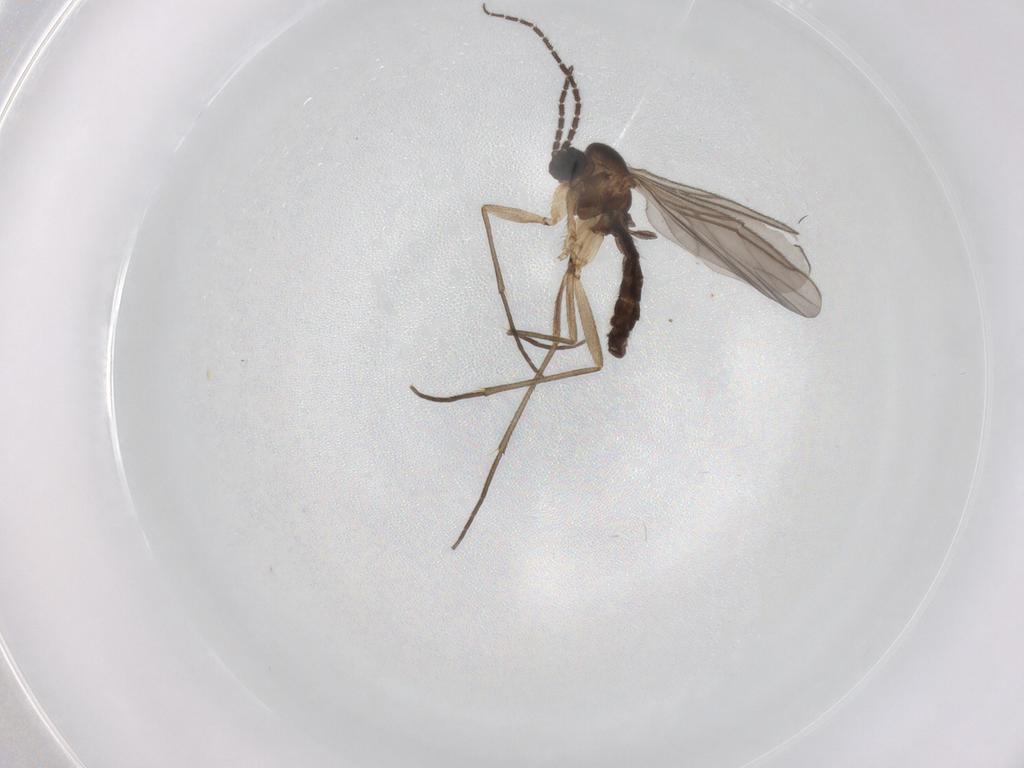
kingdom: Animalia
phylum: Arthropoda
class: Insecta
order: Diptera
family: Sciaridae
